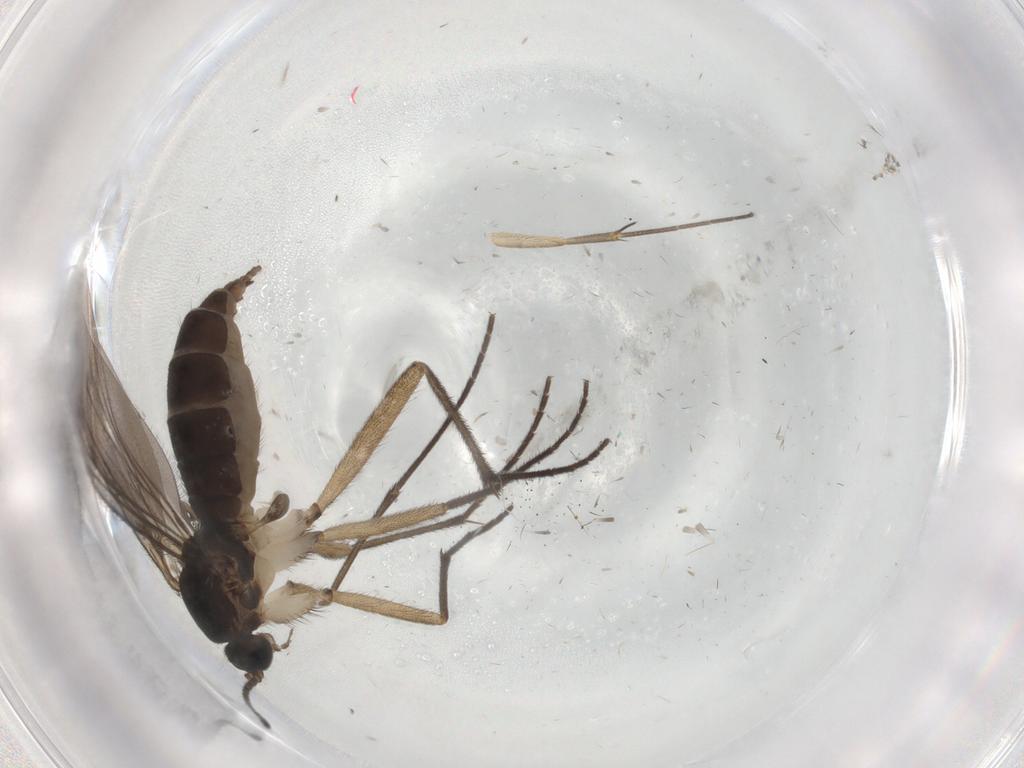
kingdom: Animalia
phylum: Arthropoda
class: Insecta
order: Diptera
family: Sciaridae
